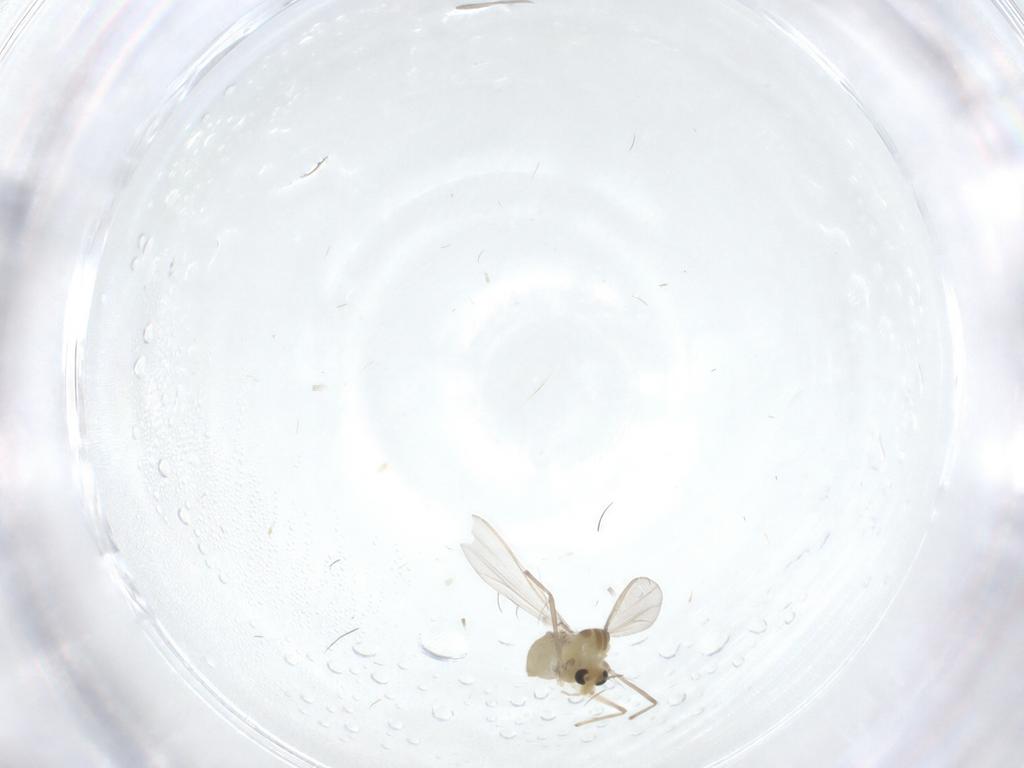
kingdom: Animalia
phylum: Arthropoda
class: Insecta
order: Diptera
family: Chironomidae
